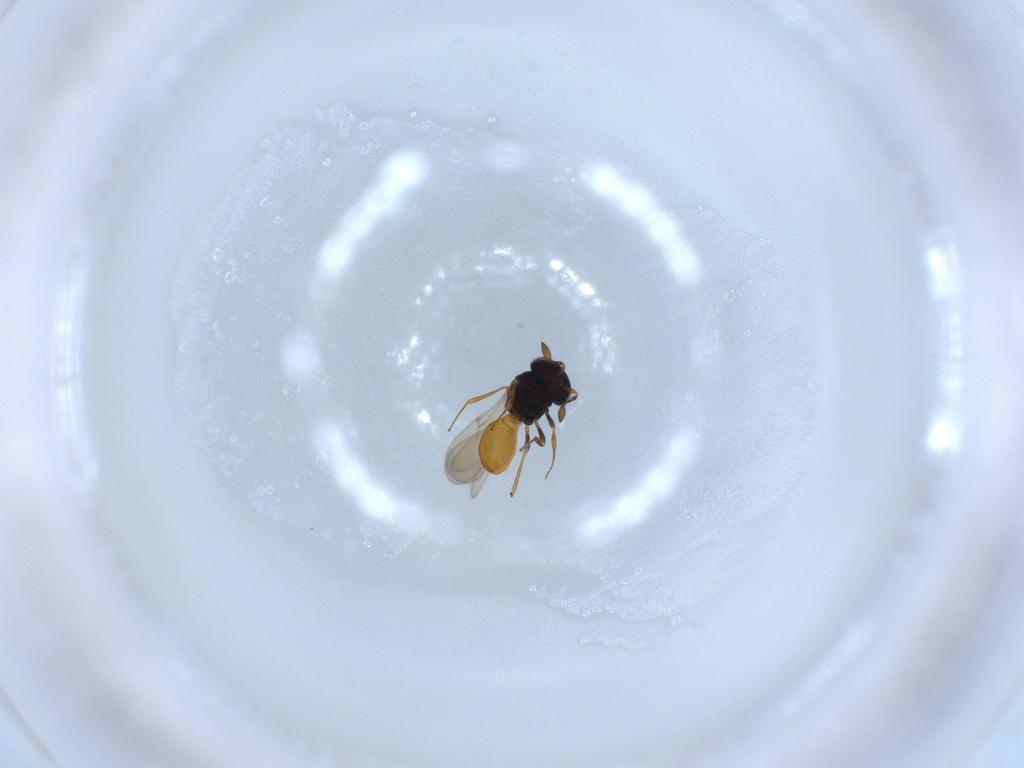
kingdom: Animalia
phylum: Arthropoda
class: Insecta
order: Hymenoptera
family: Scelionidae
